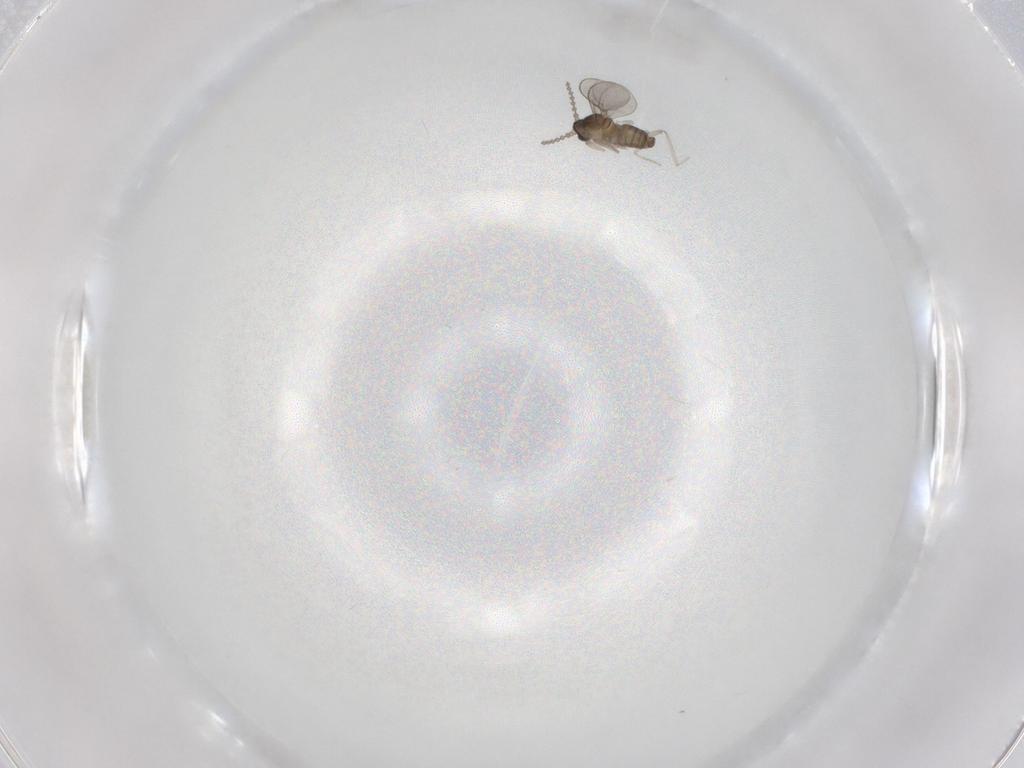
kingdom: Animalia
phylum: Arthropoda
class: Insecta
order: Diptera
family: Cecidomyiidae
